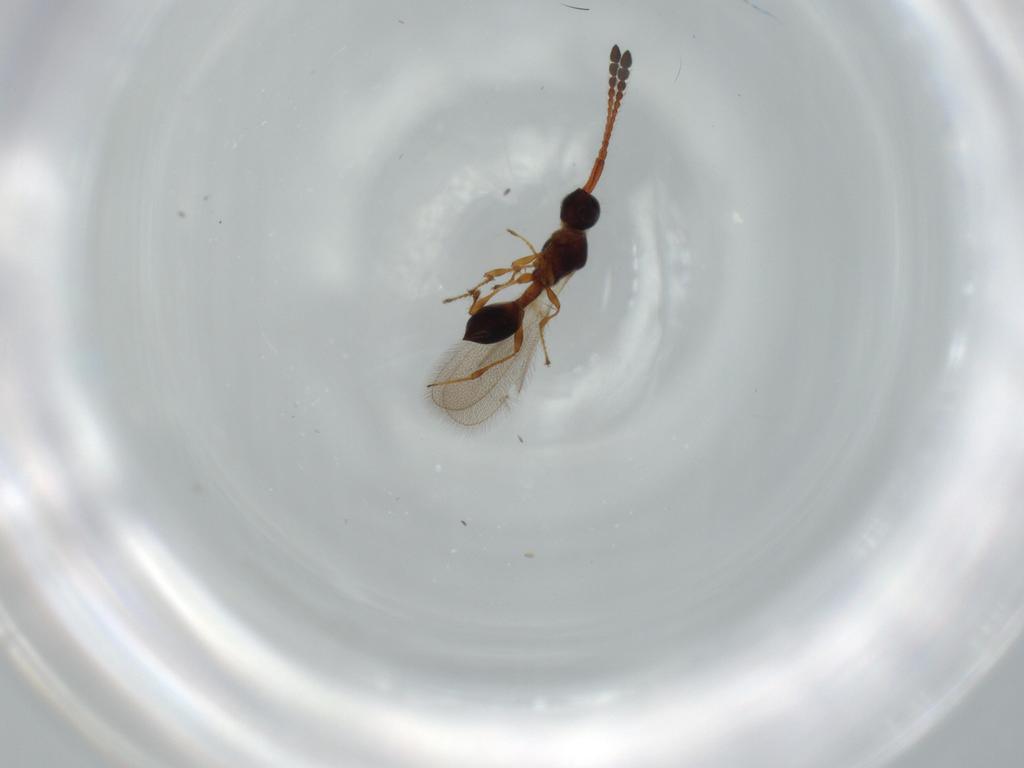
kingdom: Animalia
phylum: Arthropoda
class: Insecta
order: Hymenoptera
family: Diapriidae
